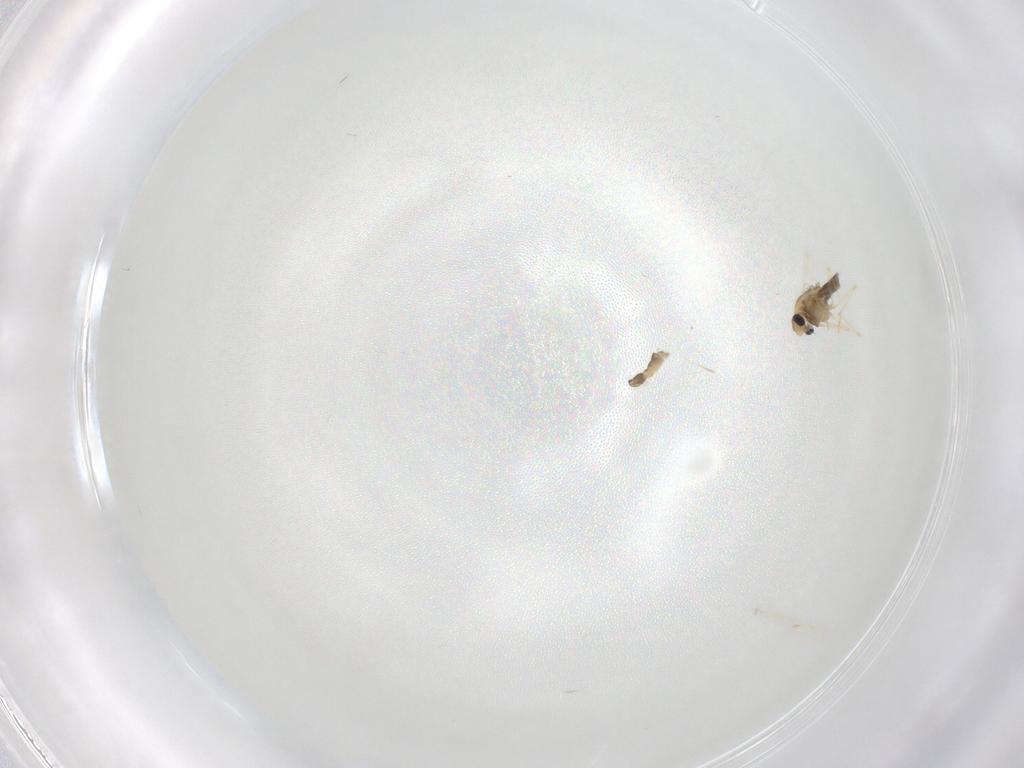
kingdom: Animalia
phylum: Arthropoda
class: Insecta
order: Diptera
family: Chironomidae
